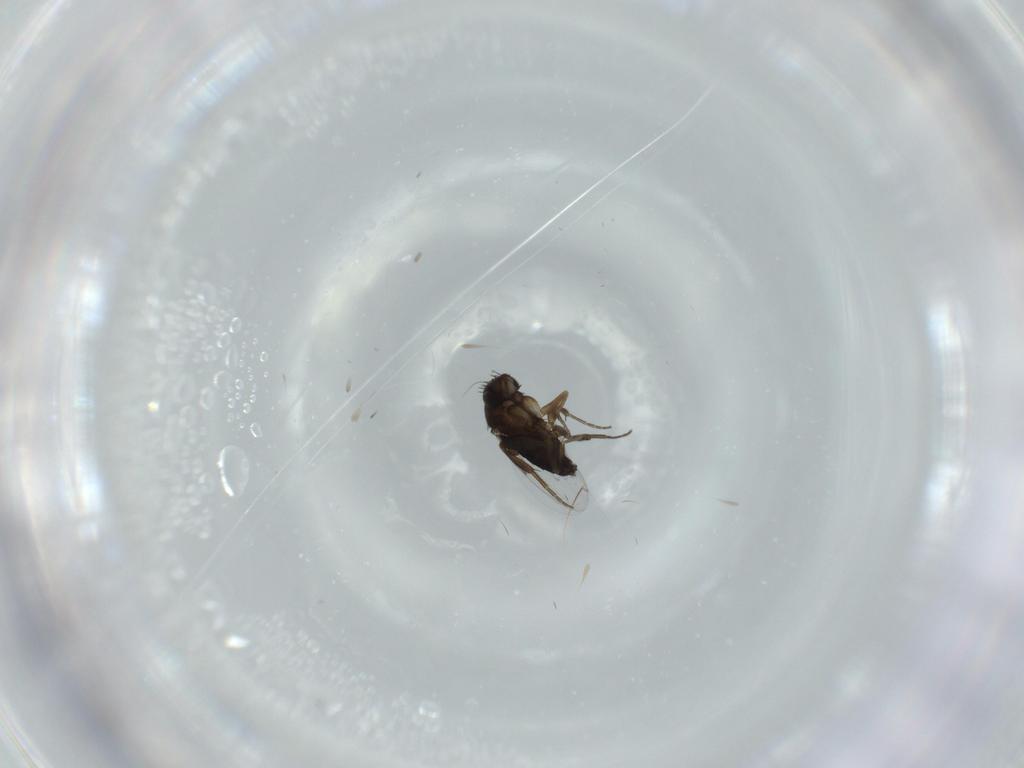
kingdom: Animalia
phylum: Arthropoda
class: Insecta
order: Diptera
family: Phoridae
